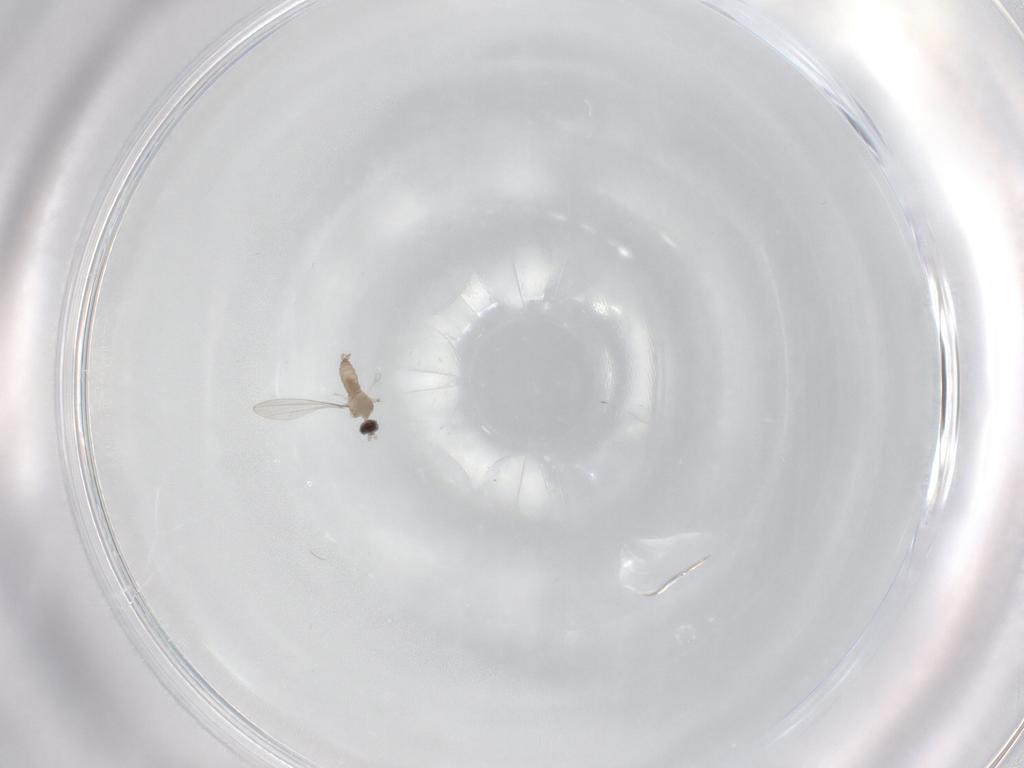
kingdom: Animalia
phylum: Arthropoda
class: Insecta
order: Diptera
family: Cecidomyiidae
